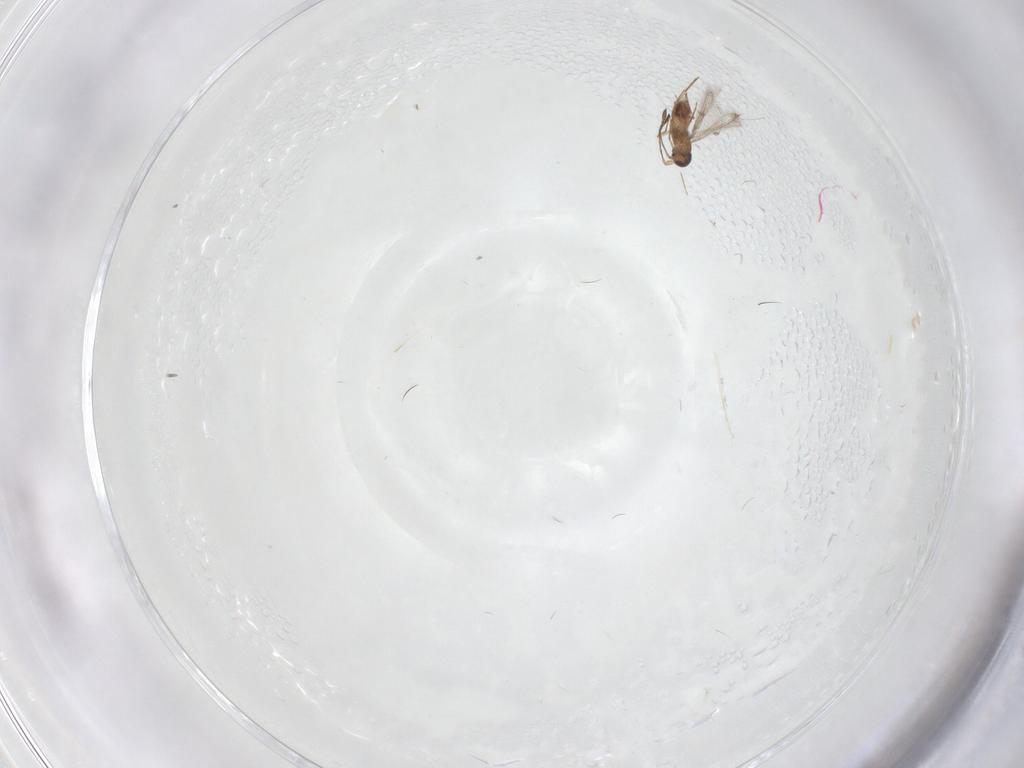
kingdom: Animalia
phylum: Arthropoda
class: Insecta
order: Hymenoptera
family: Mymaridae
